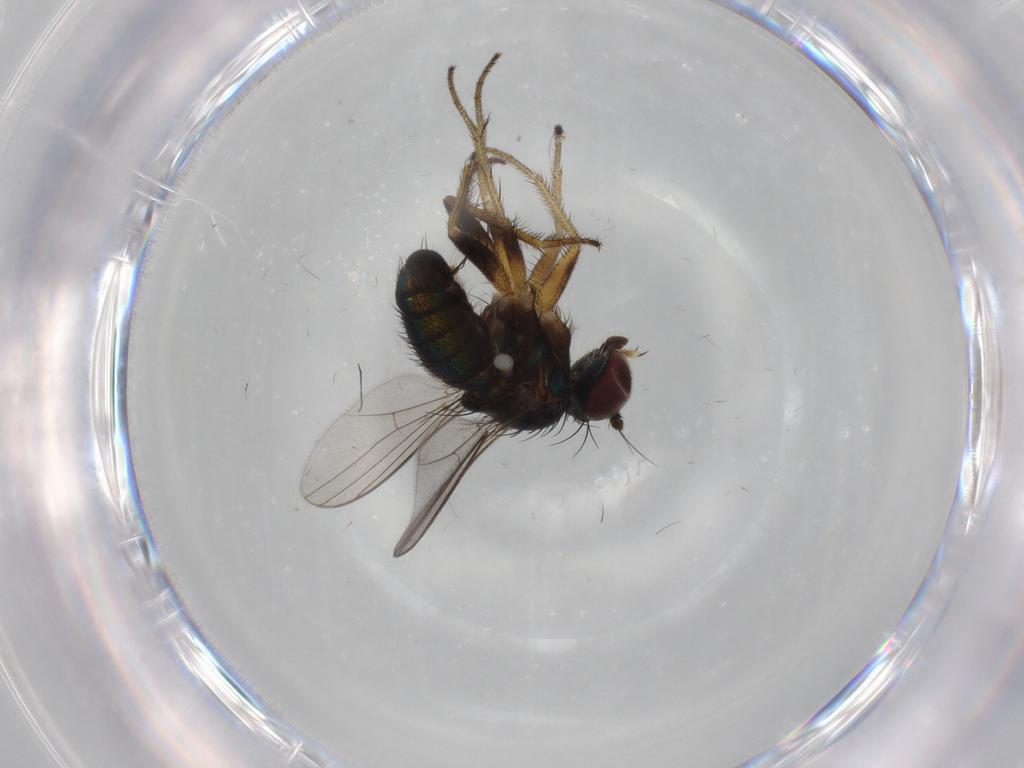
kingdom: Animalia
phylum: Arthropoda
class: Insecta
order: Diptera
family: Dolichopodidae
